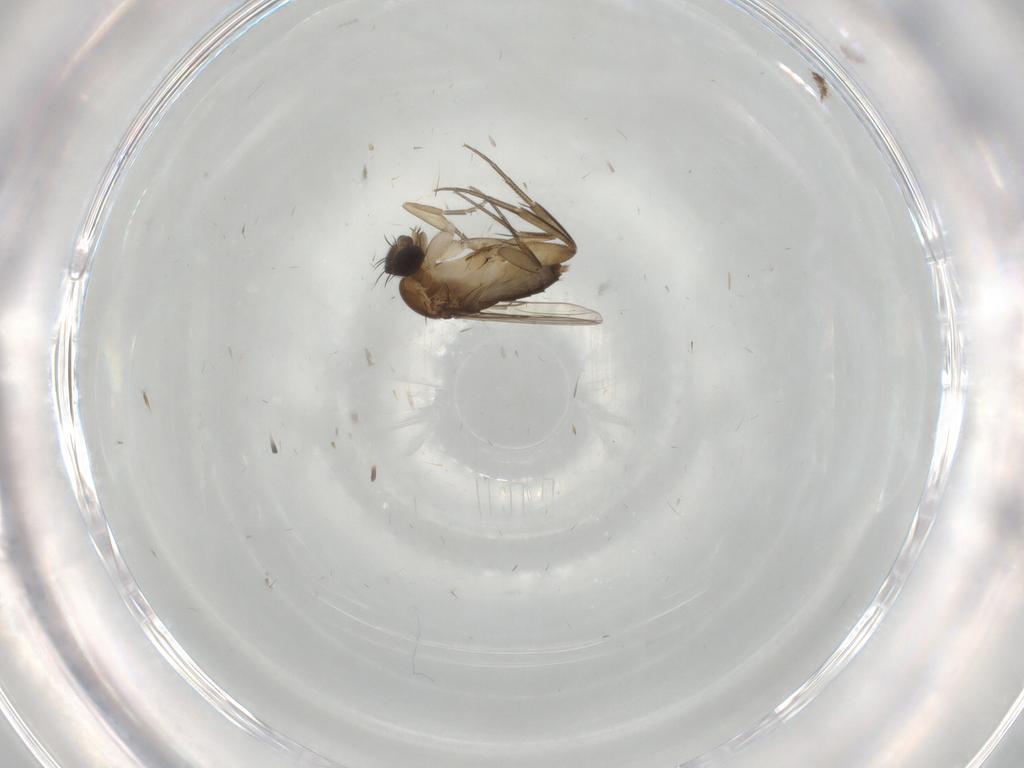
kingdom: Animalia
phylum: Arthropoda
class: Insecta
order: Diptera
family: Phoridae
